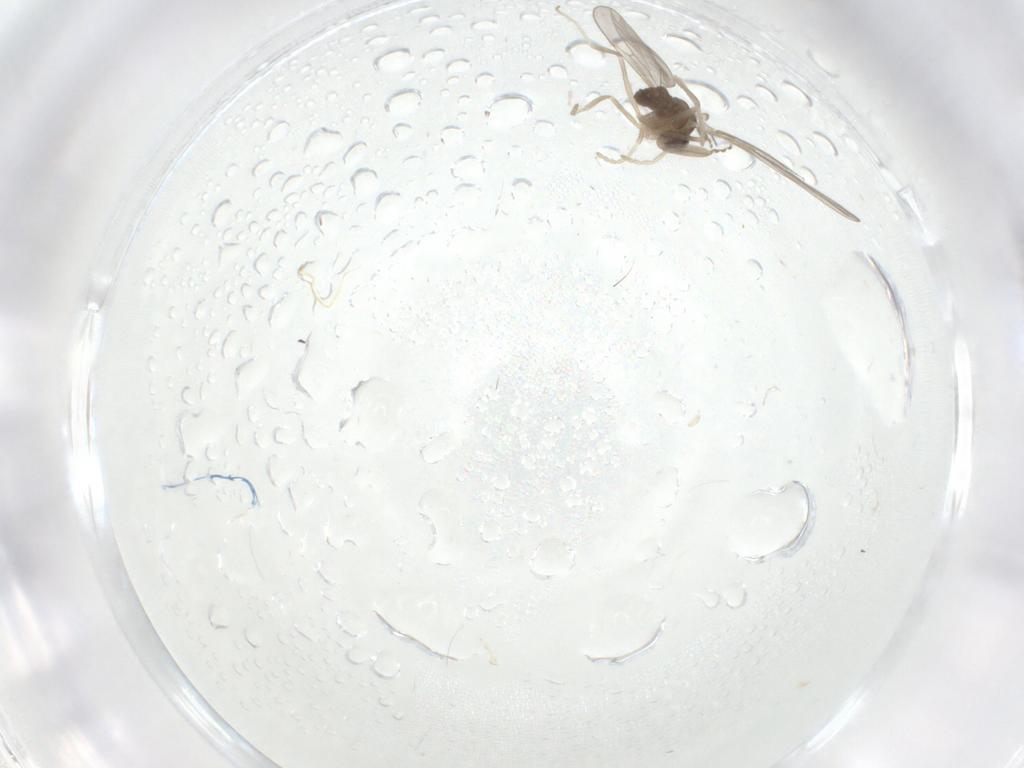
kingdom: Animalia
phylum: Arthropoda
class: Insecta
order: Diptera
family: Cecidomyiidae
